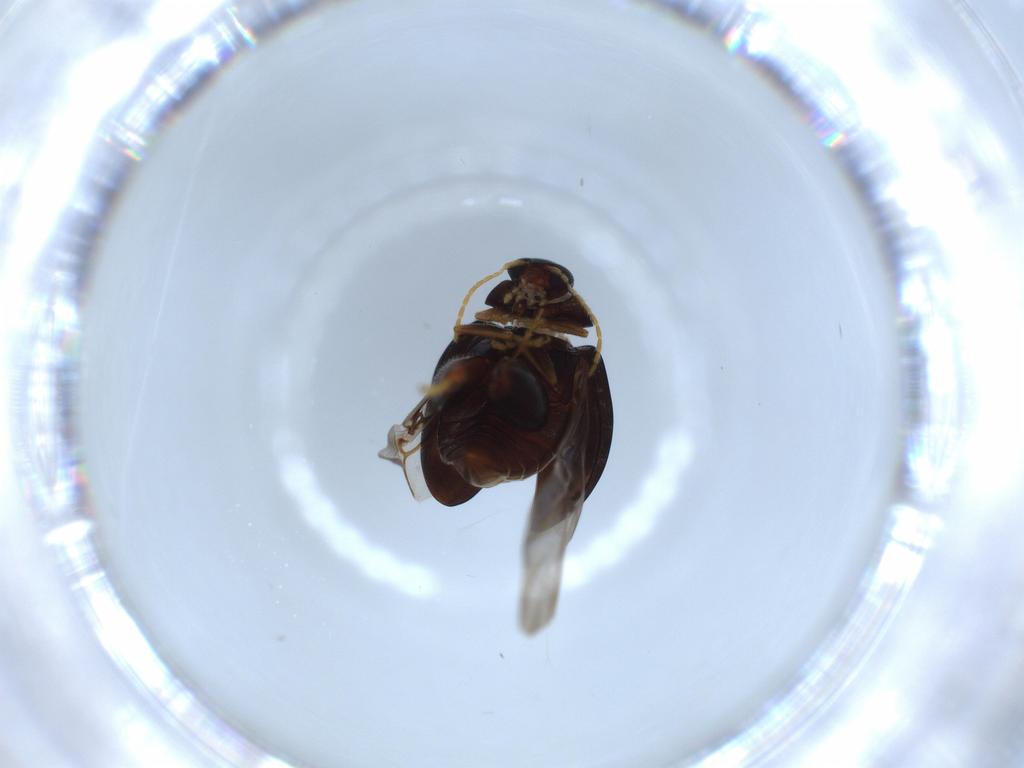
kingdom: Animalia
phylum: Arthropoda
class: Insecta
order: Coleoptera
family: Chrysomelidae
